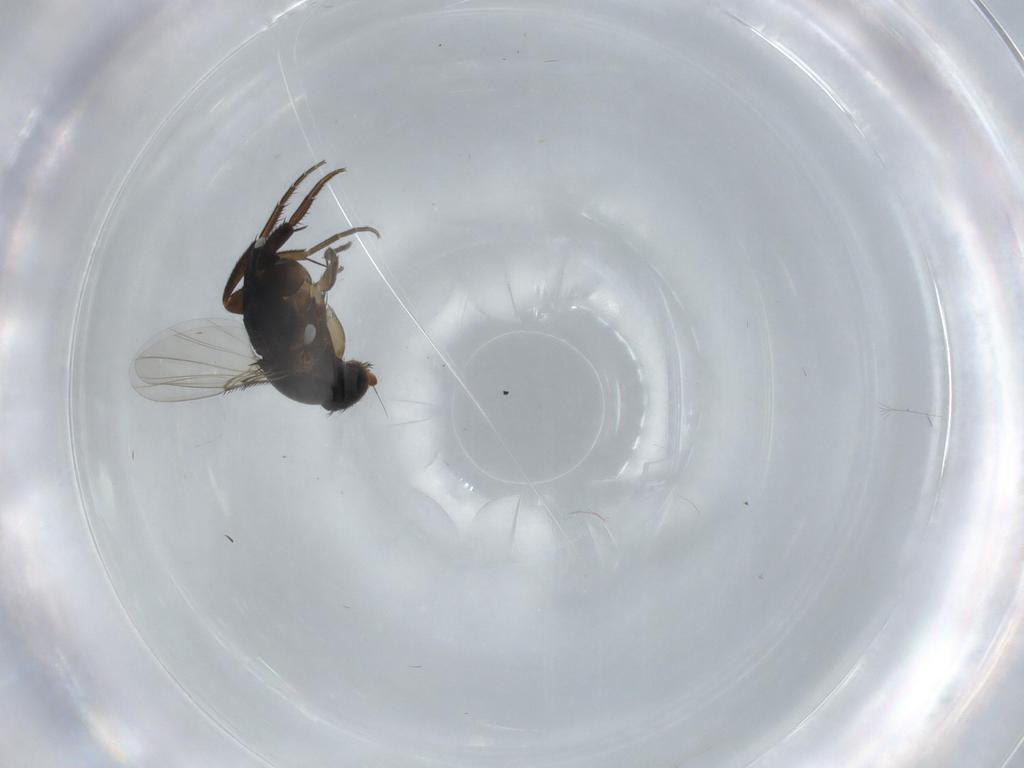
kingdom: Animalia
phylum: Arthropoda
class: Insecta
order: Diptera
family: Phoridae
